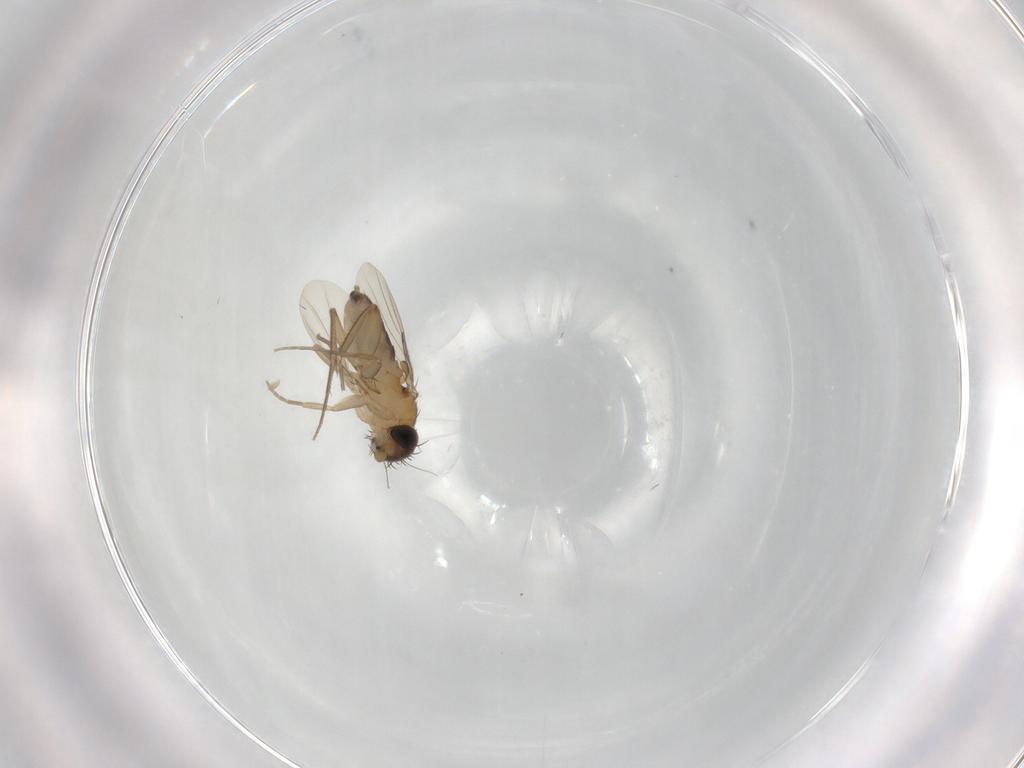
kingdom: Animalia
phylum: Arthropoda
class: Insecta
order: Diptera
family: Phoridae
